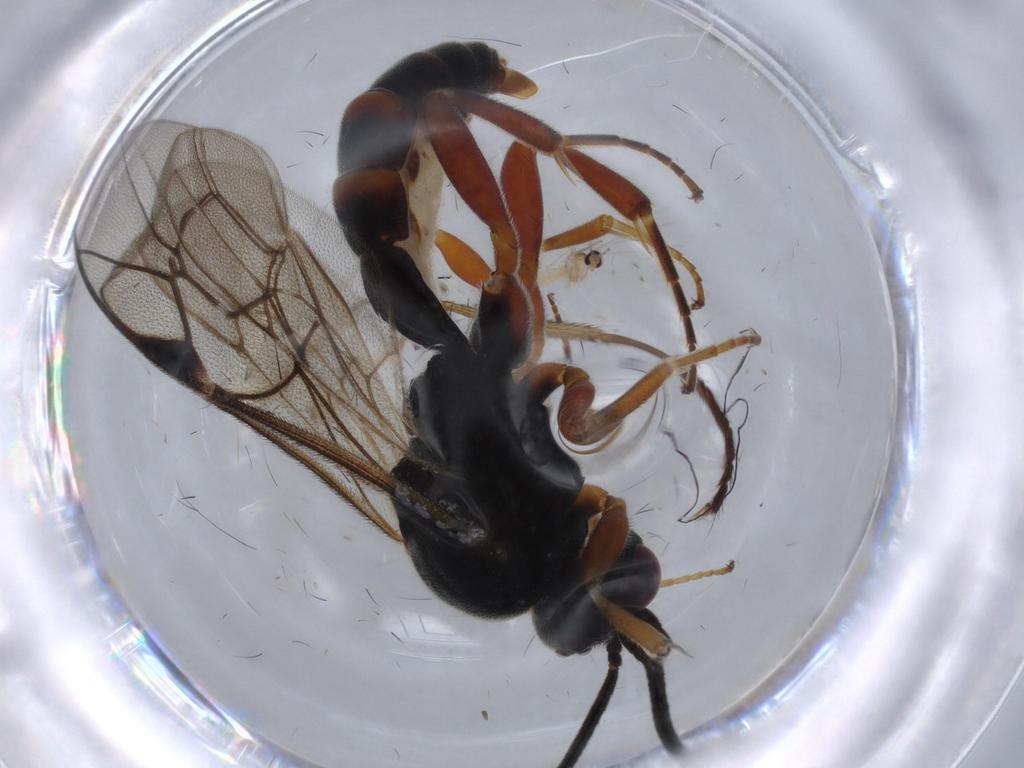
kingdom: Animalia
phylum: Arthropoda
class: Insecta
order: Hymenoptera
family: Ichneumonidae
